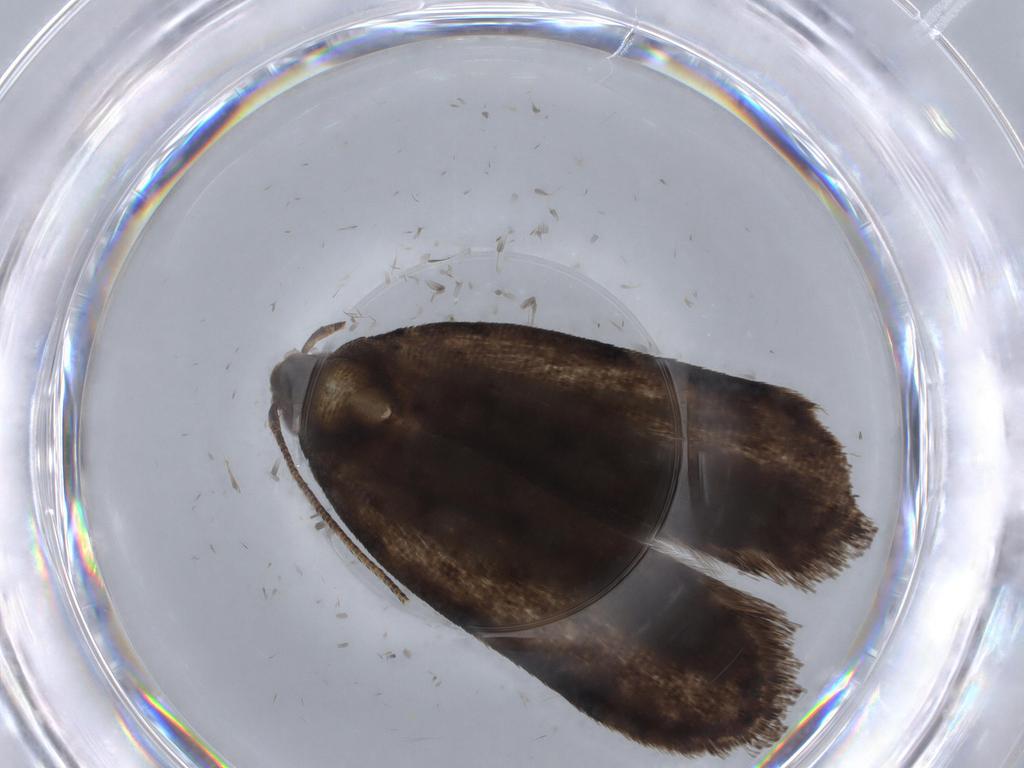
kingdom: Animalia
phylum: Arthropoda
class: Insecta
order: Lepidoptera
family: Gelechiidae
